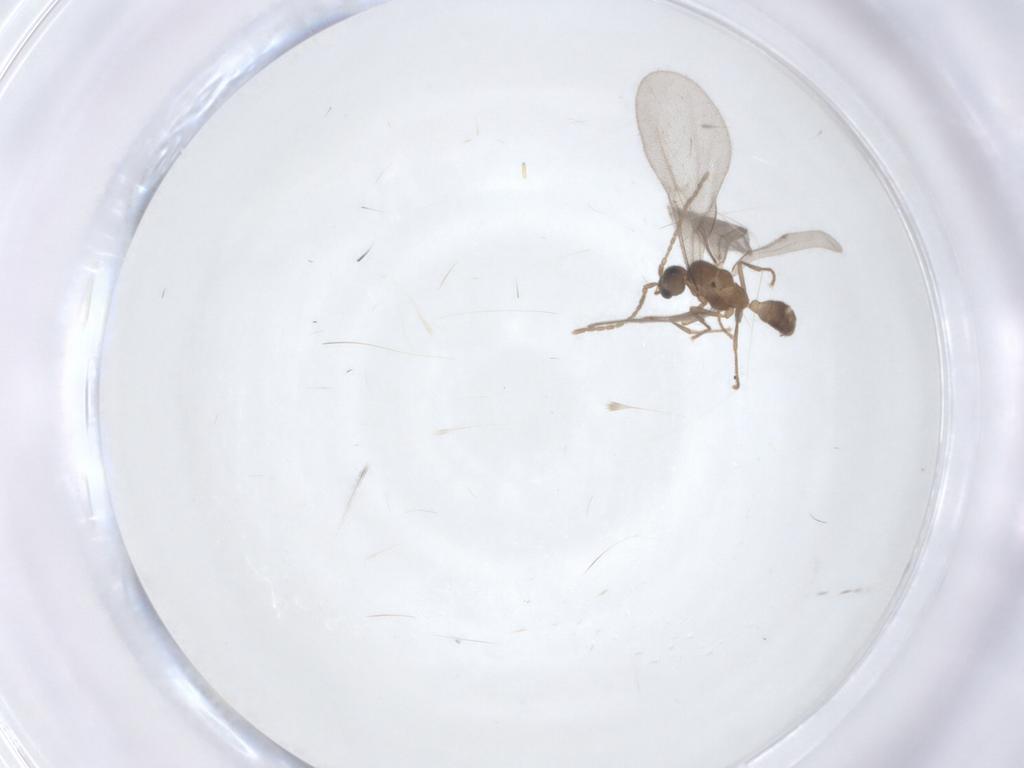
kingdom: Animalia
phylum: Arthropoda
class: Insecta
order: Hymenoptera
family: Formicidae
